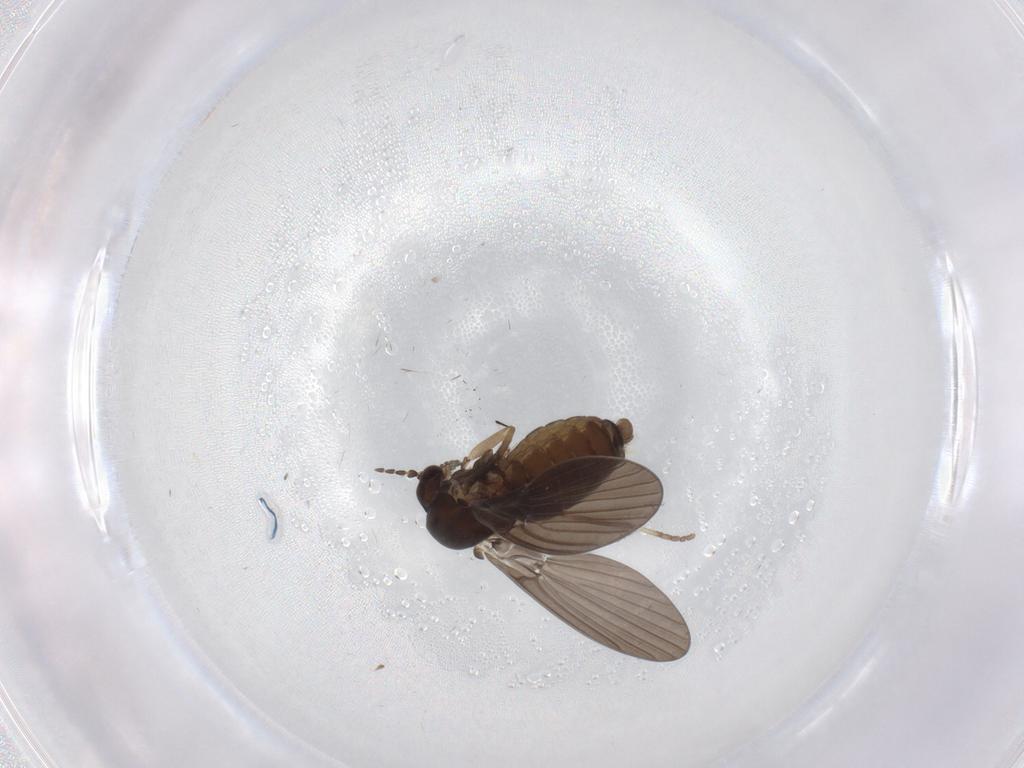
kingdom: Animalia
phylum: Arthropoda
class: Insecta
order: Diptera
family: Psychodidae
